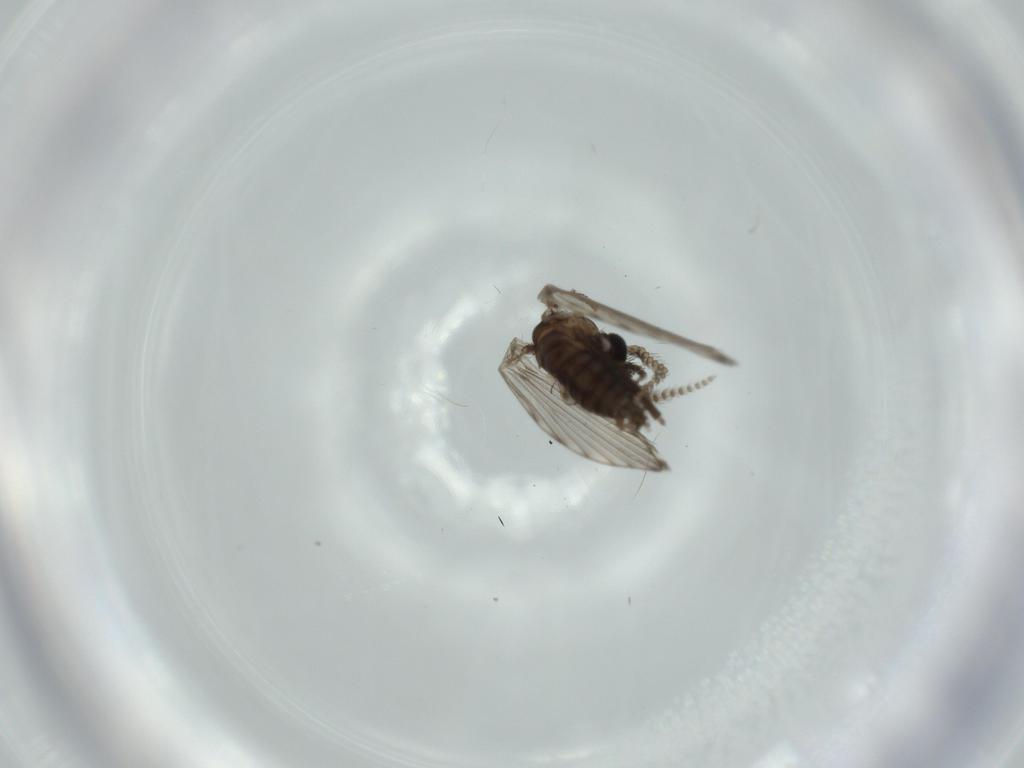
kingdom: Animalia
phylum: Arthropoda
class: Insecta
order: Diptera
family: Psychodidae
